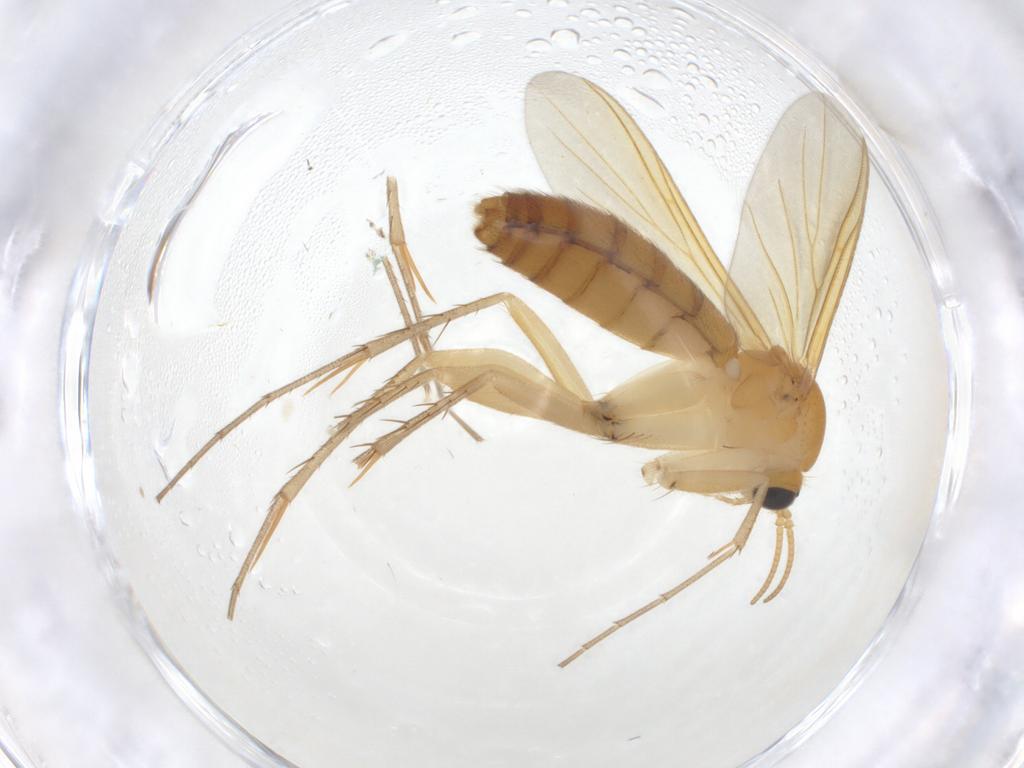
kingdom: Animalia
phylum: Arthropoda
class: Insecta
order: Diptera
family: Mycetophilidae
